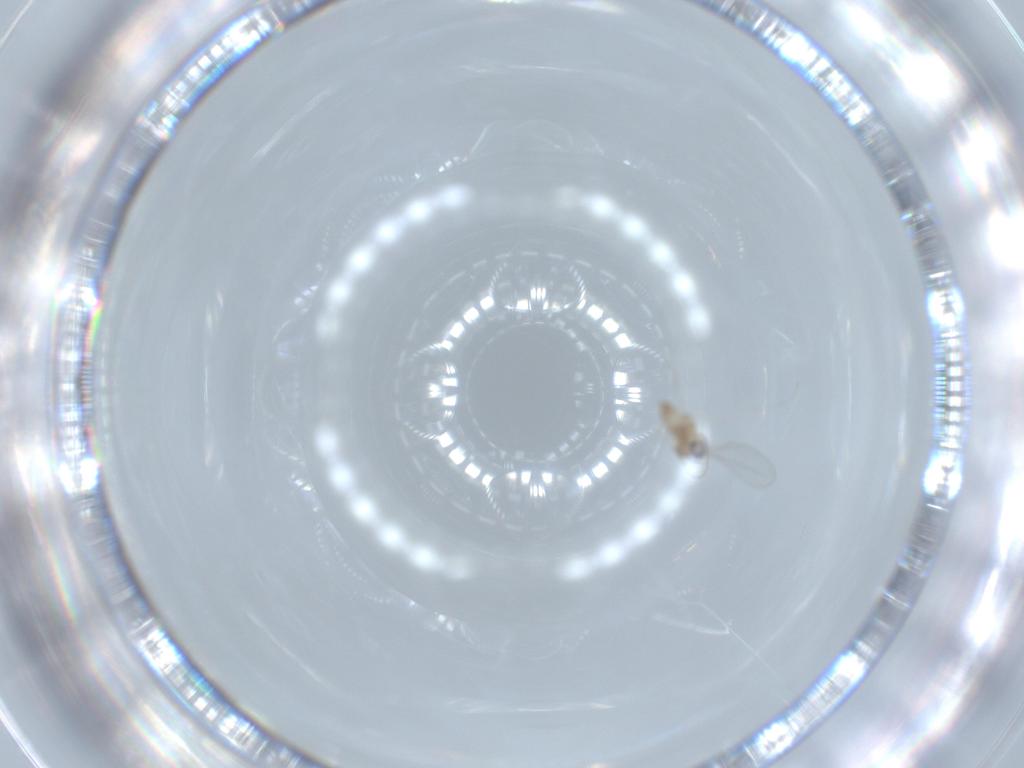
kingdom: Animalia
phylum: Arthropoda
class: Insecta
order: Diptera
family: Cecidomyiidae
